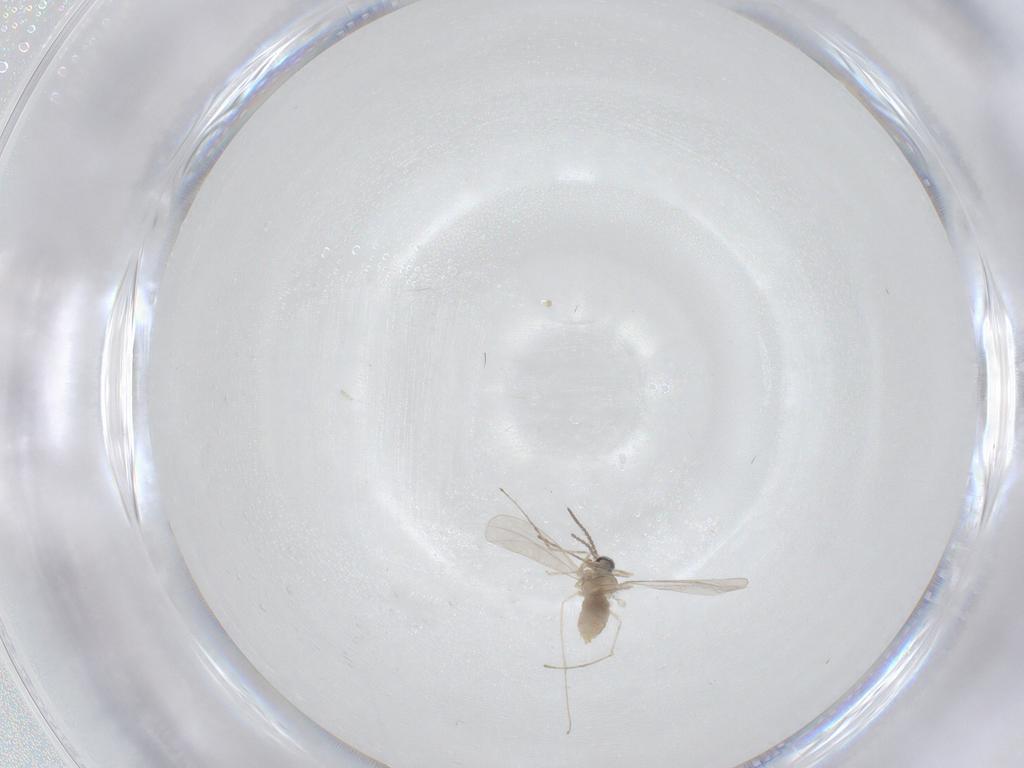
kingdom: Animalia
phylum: Arthropoda
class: Insecta
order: Diptera
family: Cecidomyiidae
